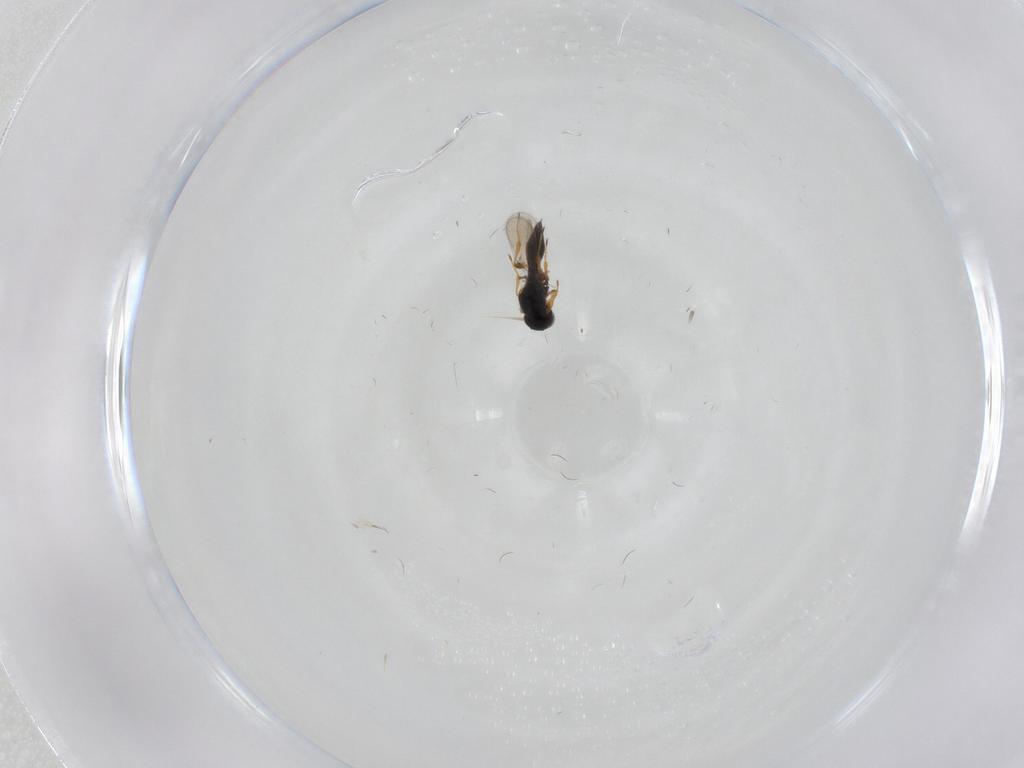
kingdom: Animalia
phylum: Arthropoda
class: Insecta
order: Hymenoptera
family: Platygastridae
